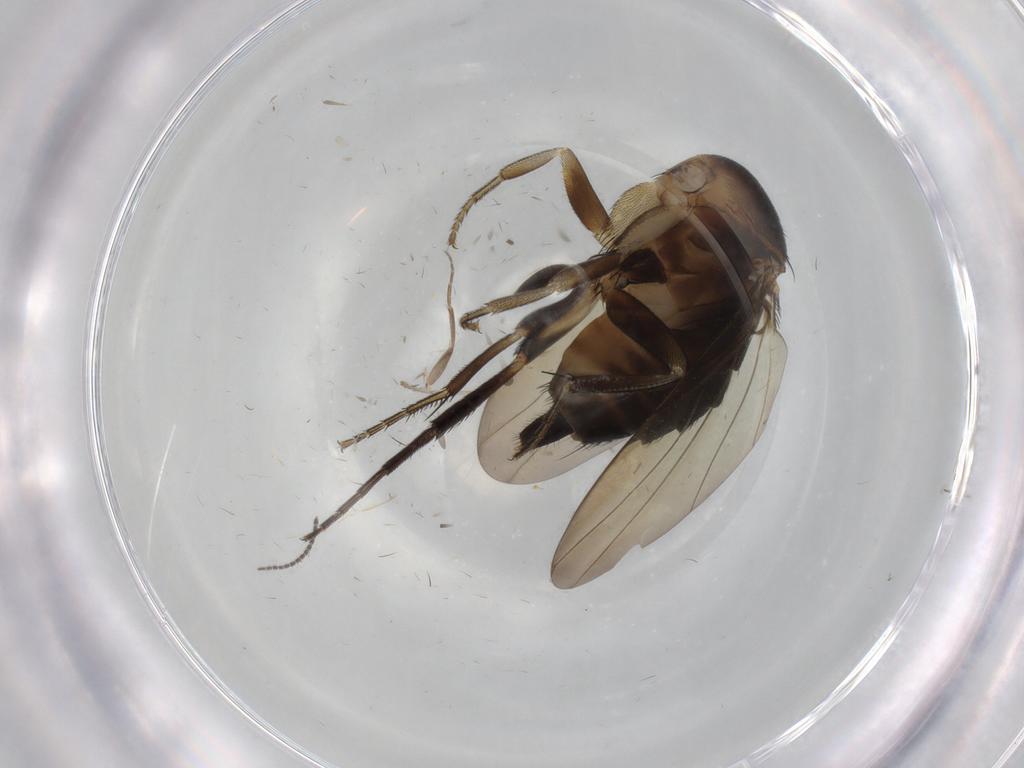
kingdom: Animalia
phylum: Arthropoda
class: Insecta
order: Diptera
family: Phoridae
